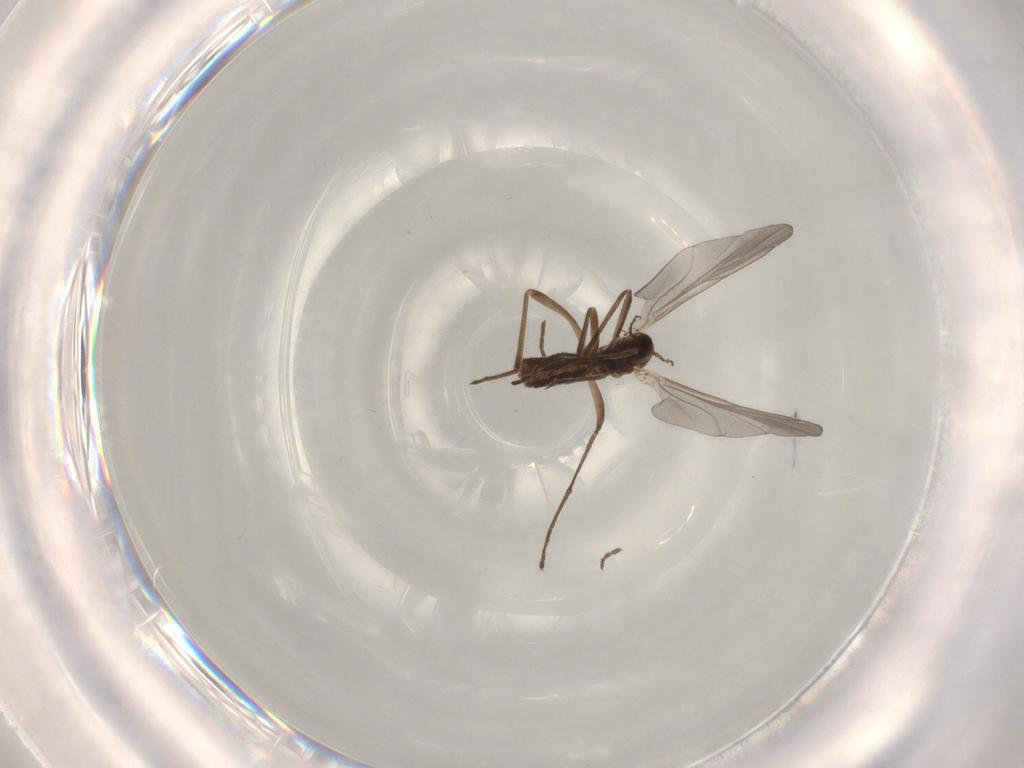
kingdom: Animalia
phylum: Arthropoda
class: Insecta
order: Diptera
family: Cecidomyiidae
